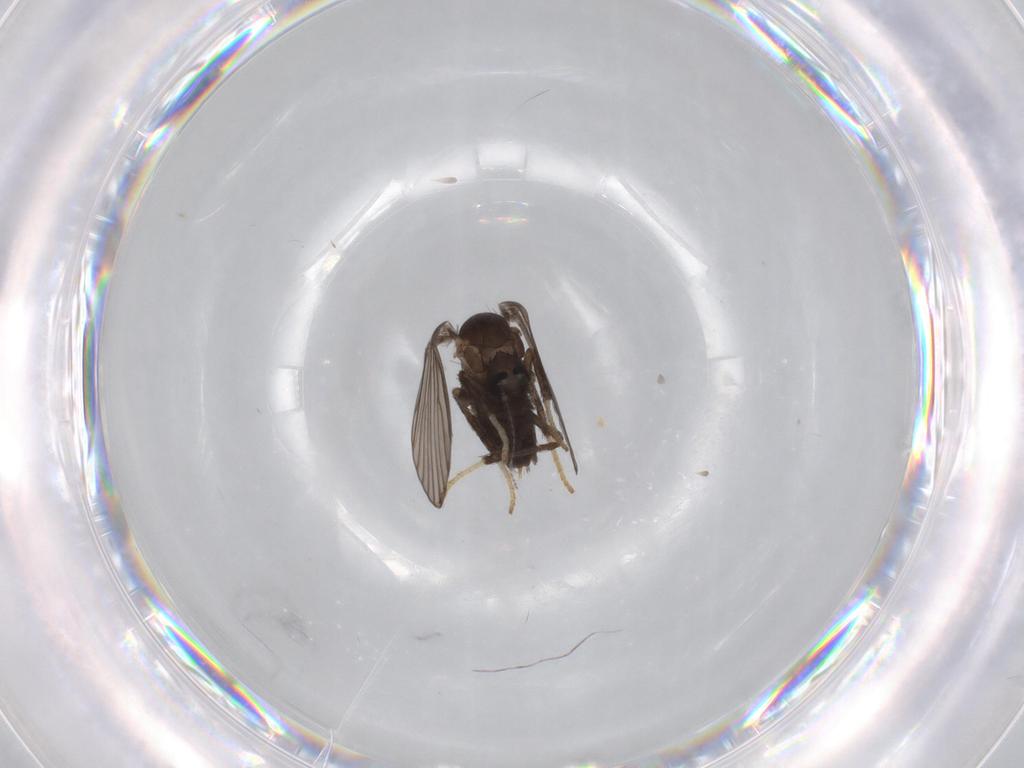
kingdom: Animalia
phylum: Arthropoda
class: Insecta
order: Diptera
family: Psychodidae
